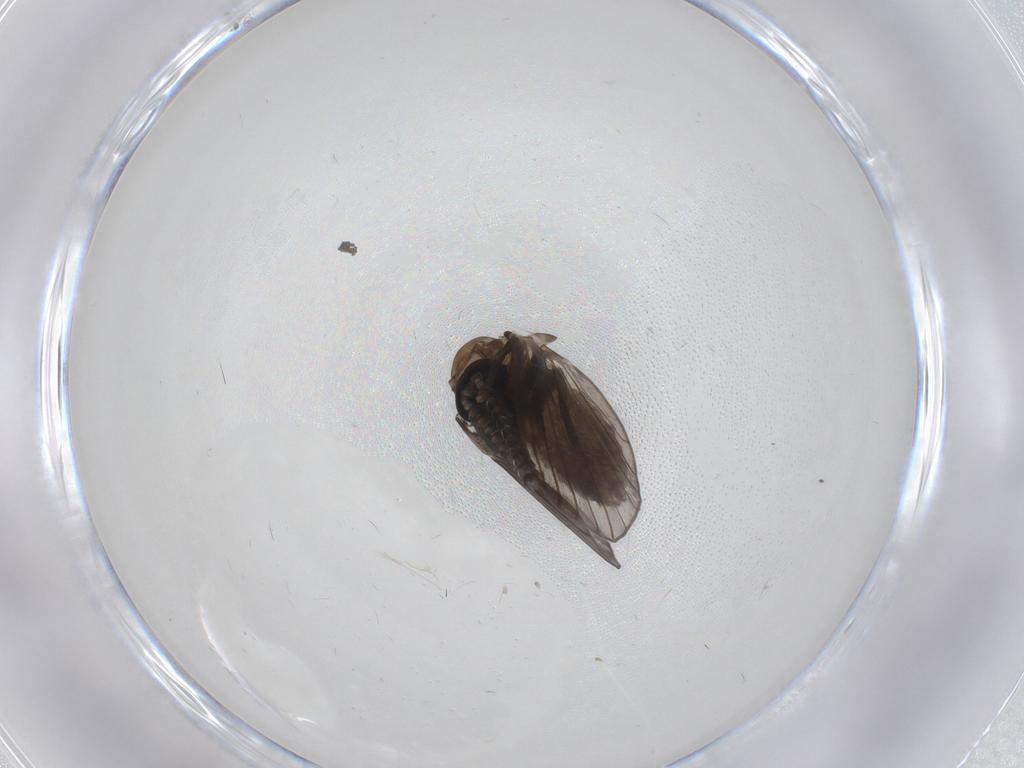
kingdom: Animalia
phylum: Arthropoda
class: Insecta
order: Diptera
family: Psychodidae
